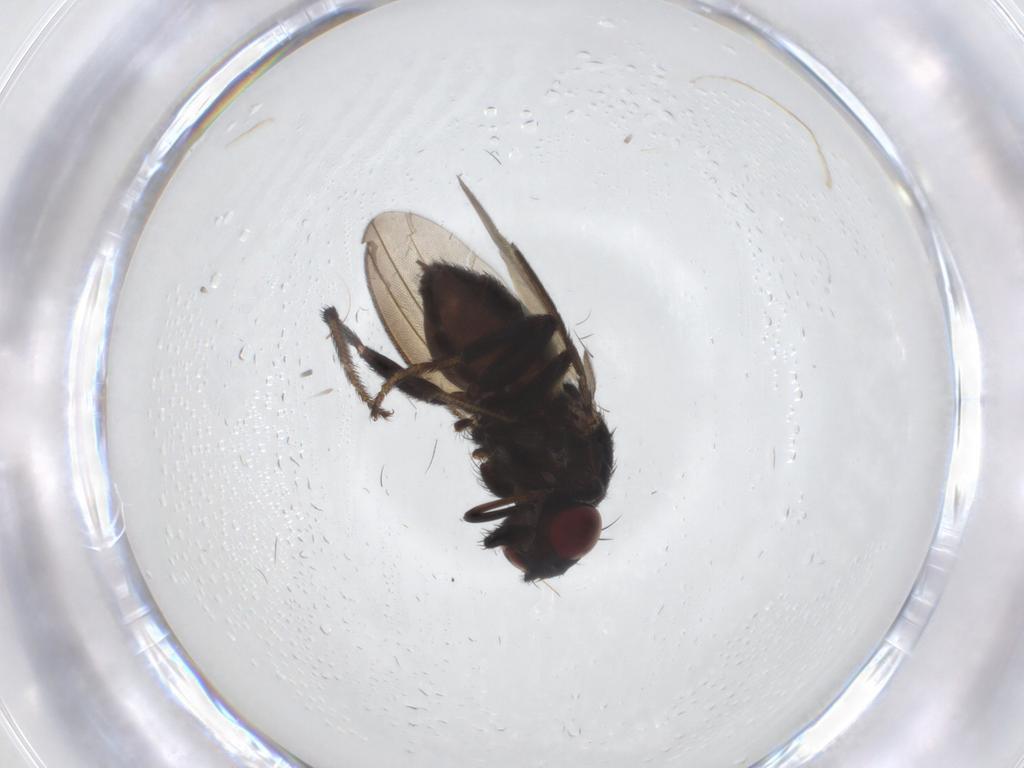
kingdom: Animalia
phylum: Arthropoda
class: Insecta
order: Diptera
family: Milichiidae
